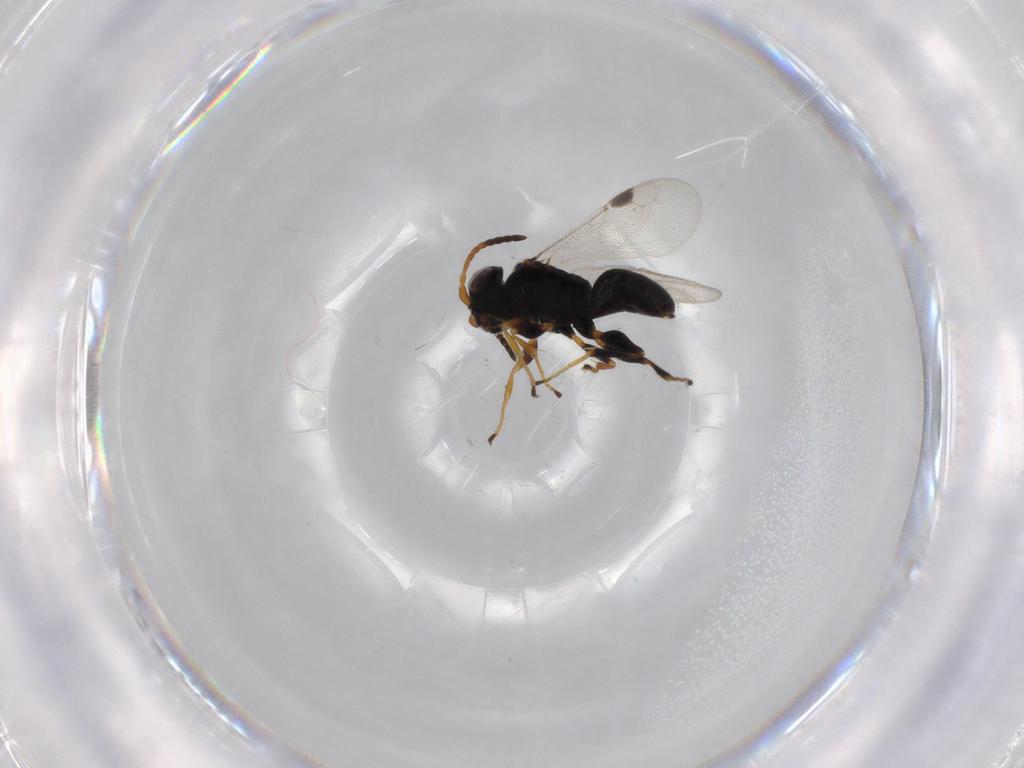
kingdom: Animalia
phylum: Arthropoda
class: Insecta
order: Hymenoptera
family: Dryinidae
